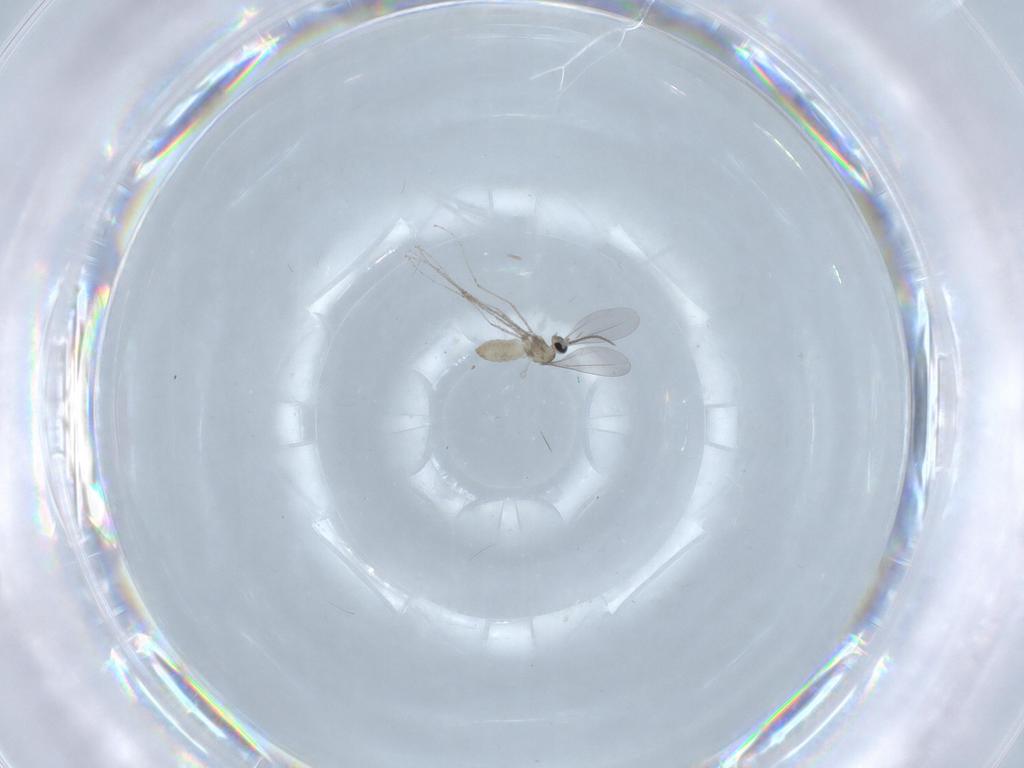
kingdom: Animalia
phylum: Arthropoda
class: Insecta
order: Diptera
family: Cecidomyiidae
